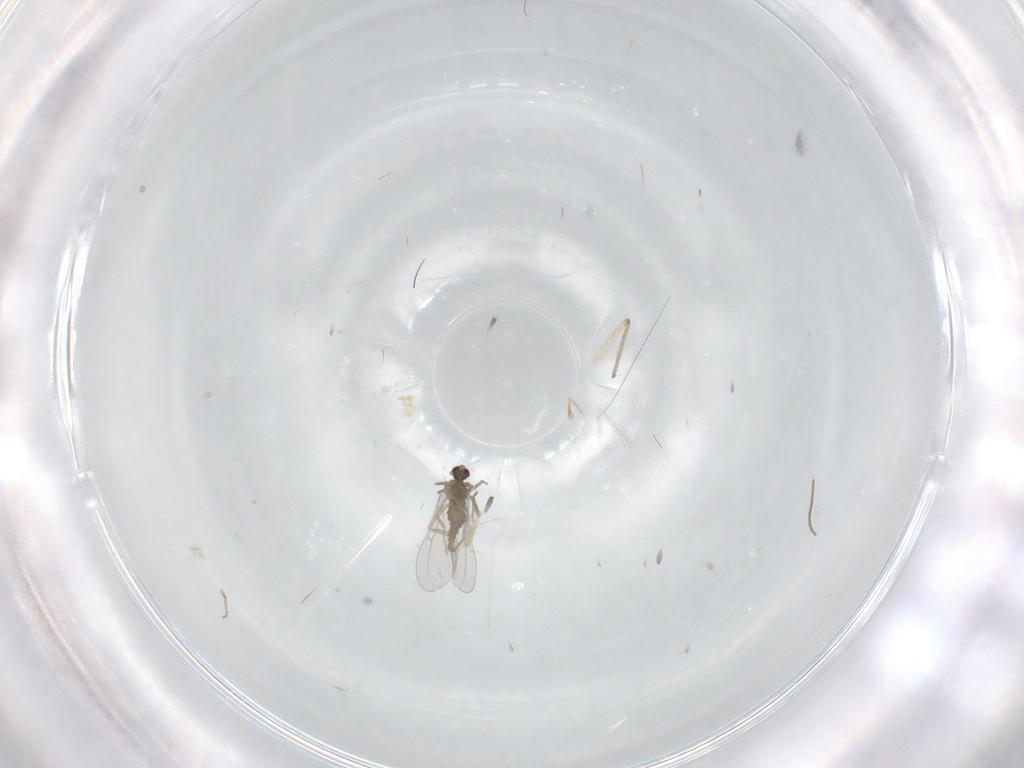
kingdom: Animalia
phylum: Arthropoda
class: Insecta
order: Diptera
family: Cecidomyiidae
